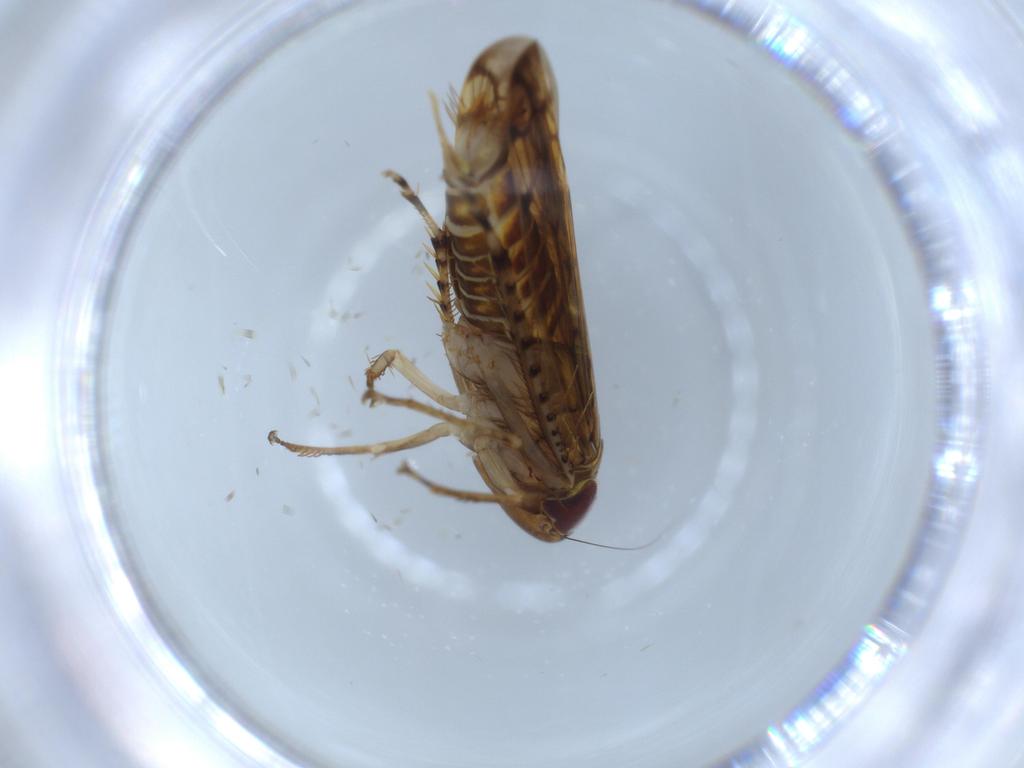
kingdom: Animalia
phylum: Arthropoda
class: Insecta
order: Hemiptera
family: Cicadellidae
